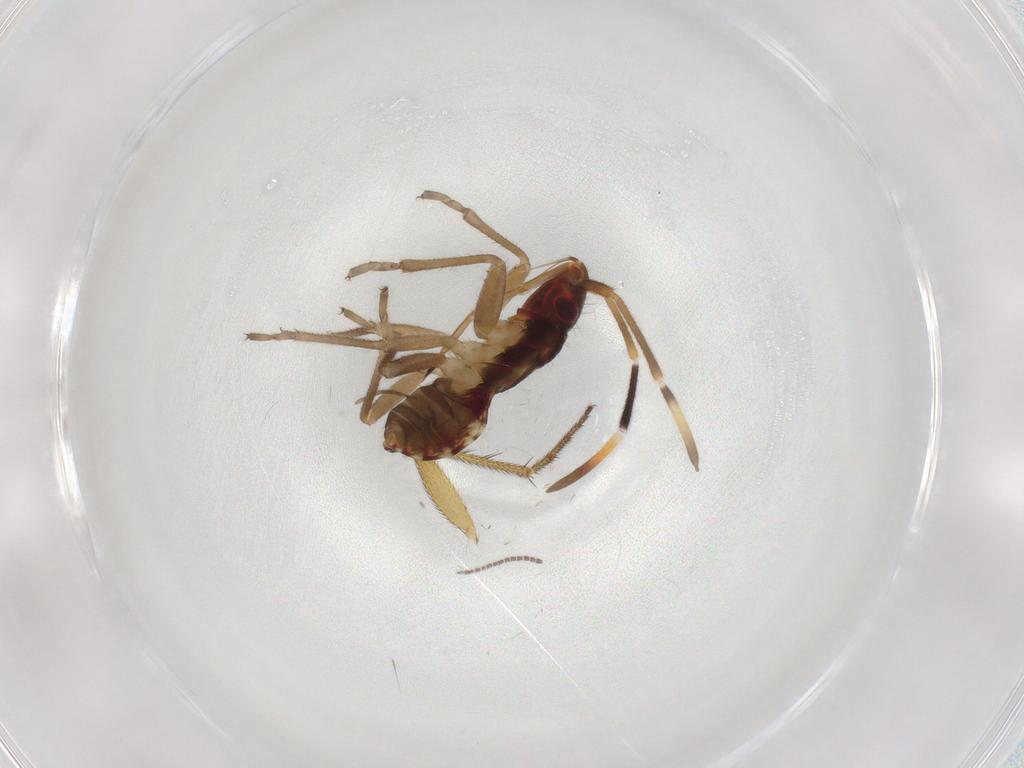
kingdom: Animalia
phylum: Arthropoda
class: Insecta
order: Hemiptera
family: Rhyparochromidae
